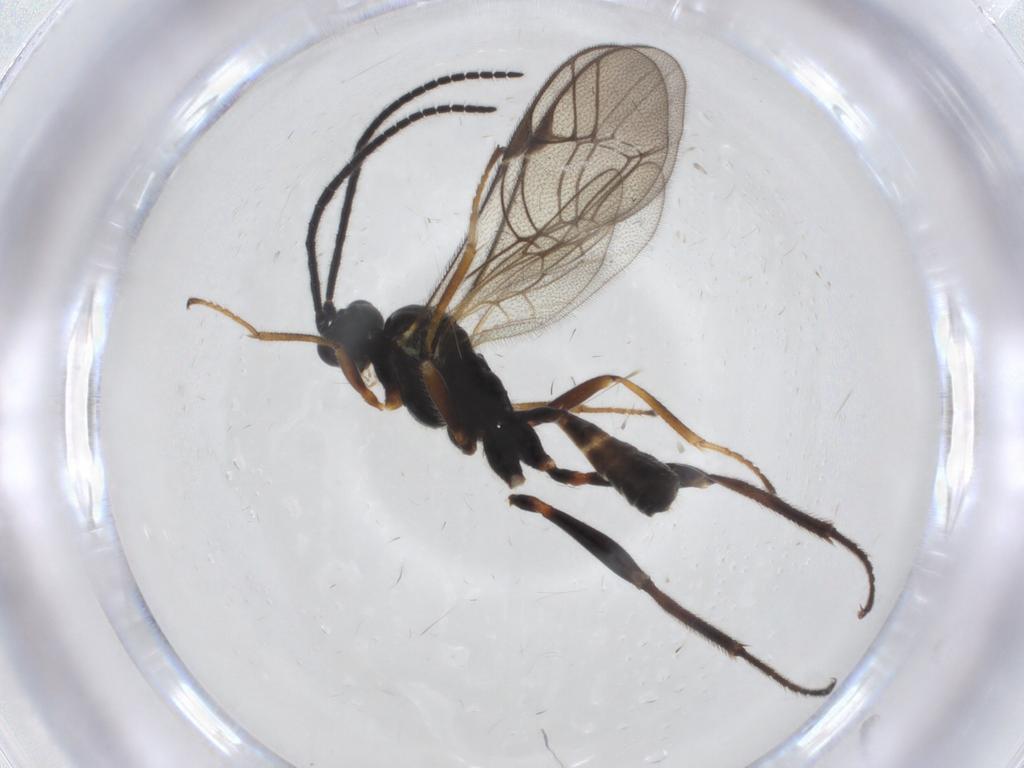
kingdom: Animalia
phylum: Arthropoda
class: Insecta
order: Hymenoptera
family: Ichneumonidae
